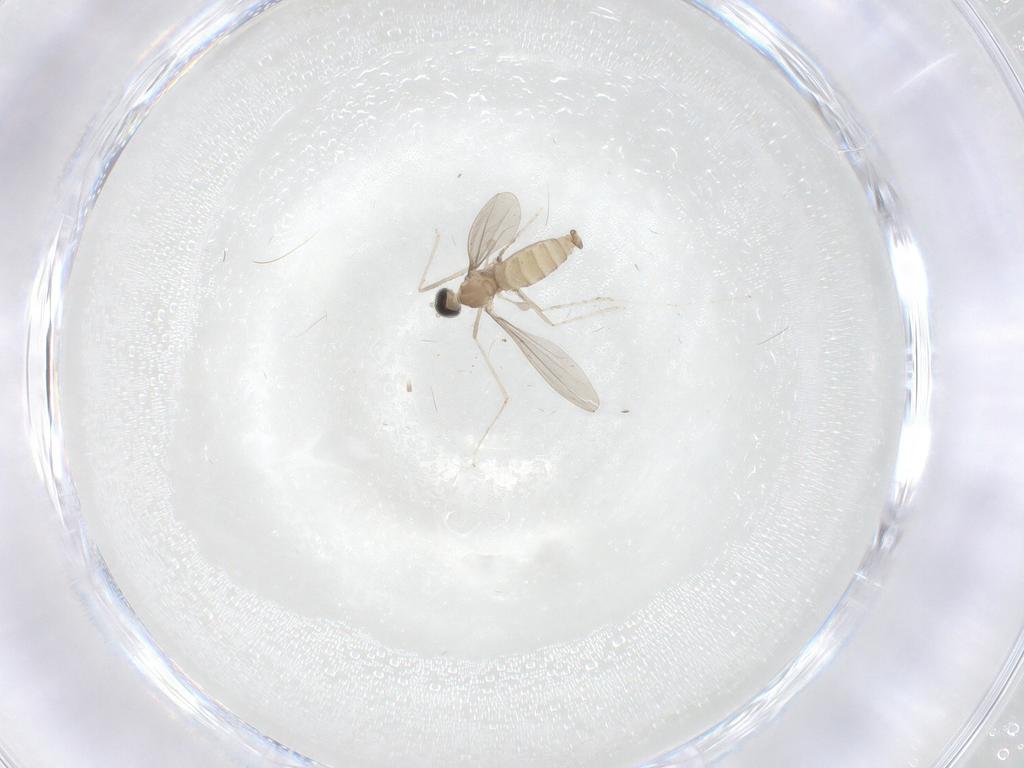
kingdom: Animalia
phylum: Arthropoda
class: Insecta
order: Diptera
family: Cecidomyiidae
